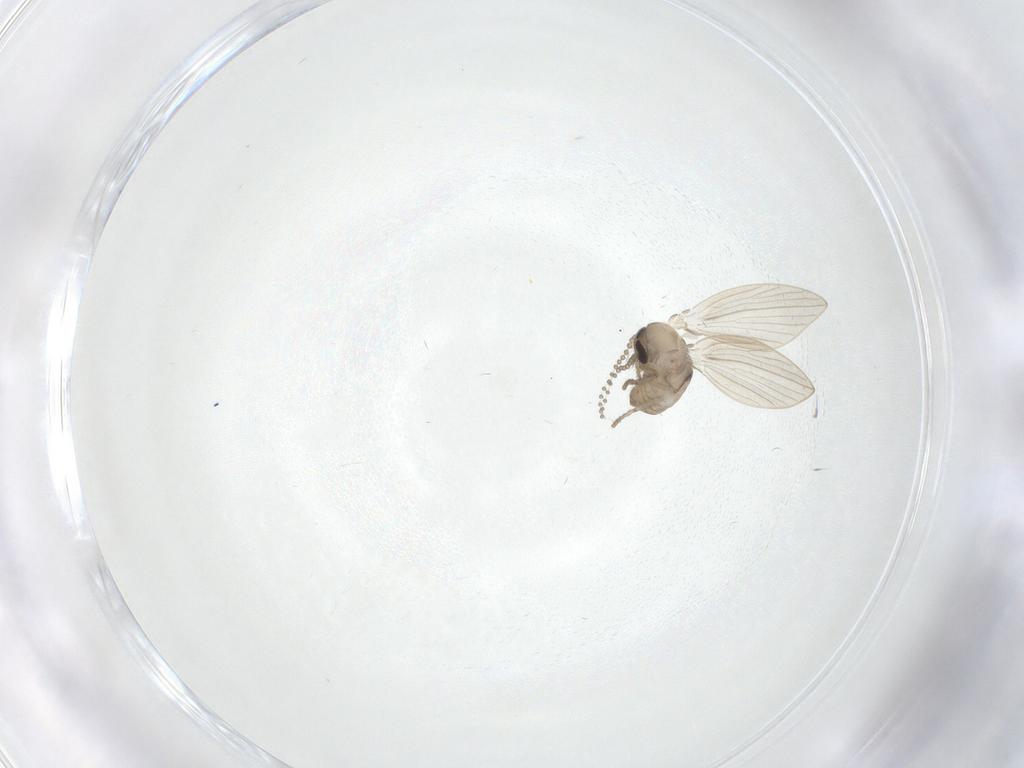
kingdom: Animalia
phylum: Arthropoda
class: Insecta
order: Diptera
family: Psychodidae
